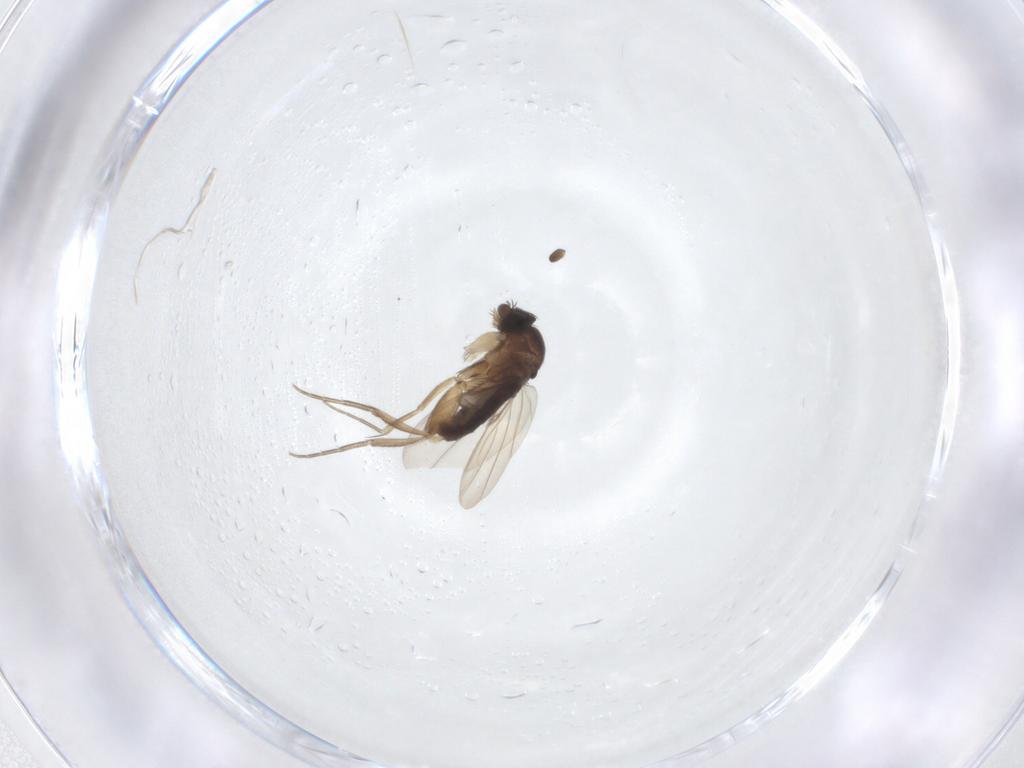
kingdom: Animalia
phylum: Arthropoda
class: Insecta
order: Diptera
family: Phoridae
